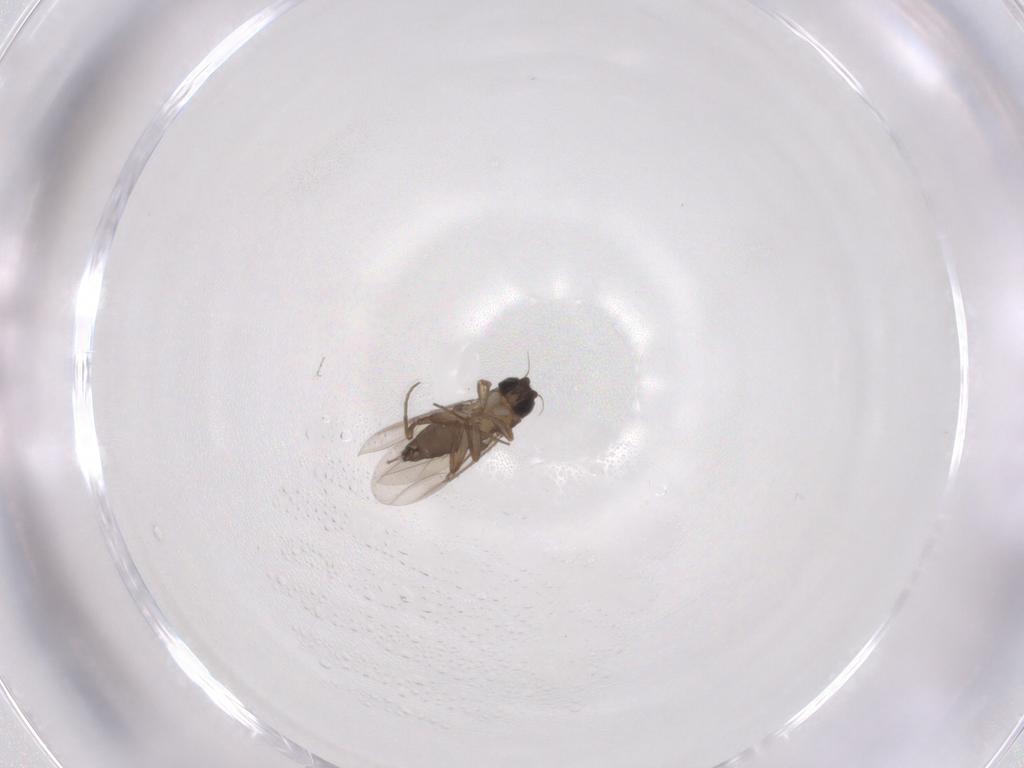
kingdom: Animalia
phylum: Arthropoda
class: Insecta
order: Diptera
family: Phoridae
